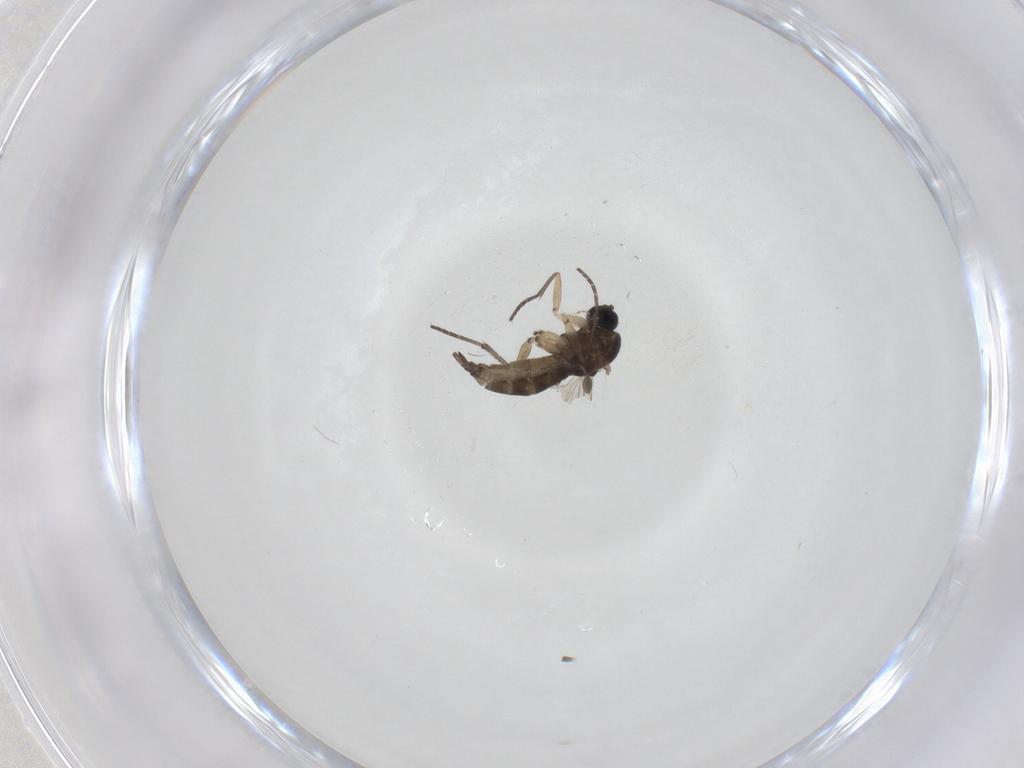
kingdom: Animalia
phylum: Arthropoda
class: Insecta
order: Diptera
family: Sciaridae
